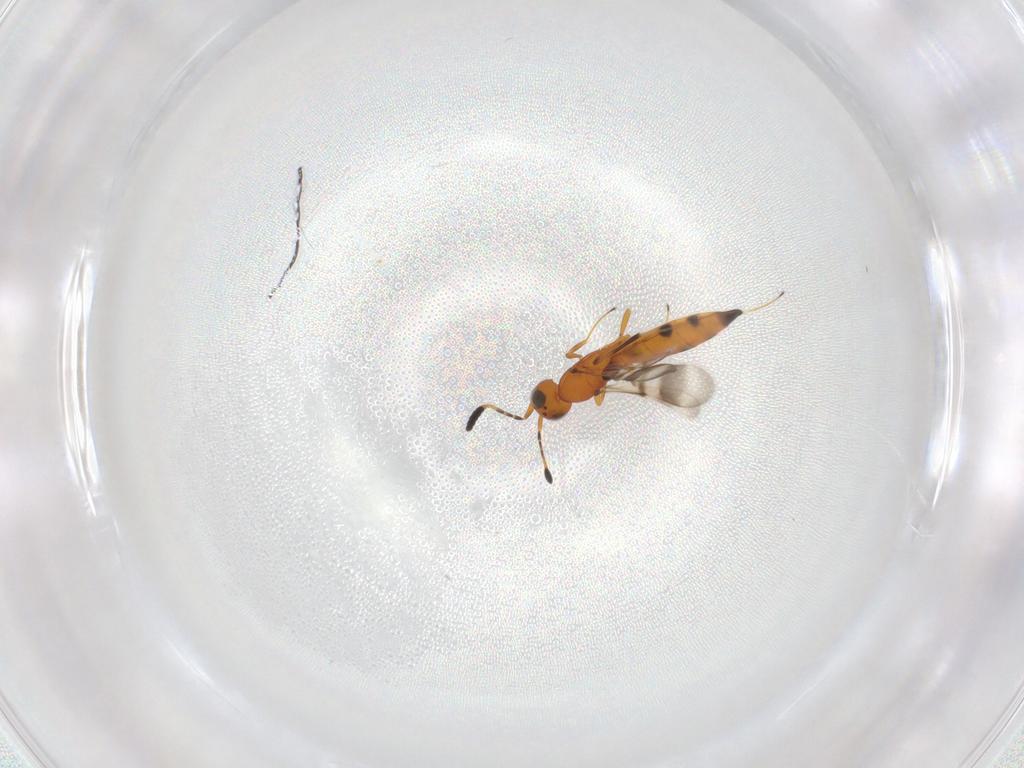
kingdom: Animalia
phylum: Arthropoda
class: Insecta
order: Hymenoptera
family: Scelionidae
